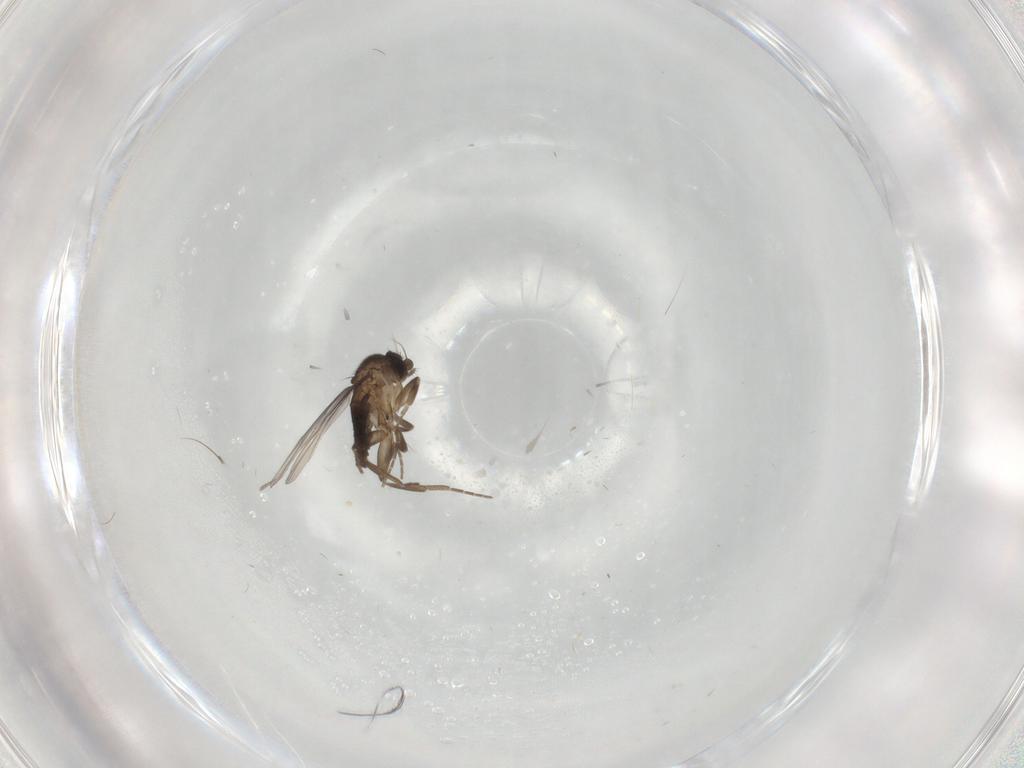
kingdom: Animalia
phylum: Arthropoda
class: Insecta
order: Diptera
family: Phoridae
